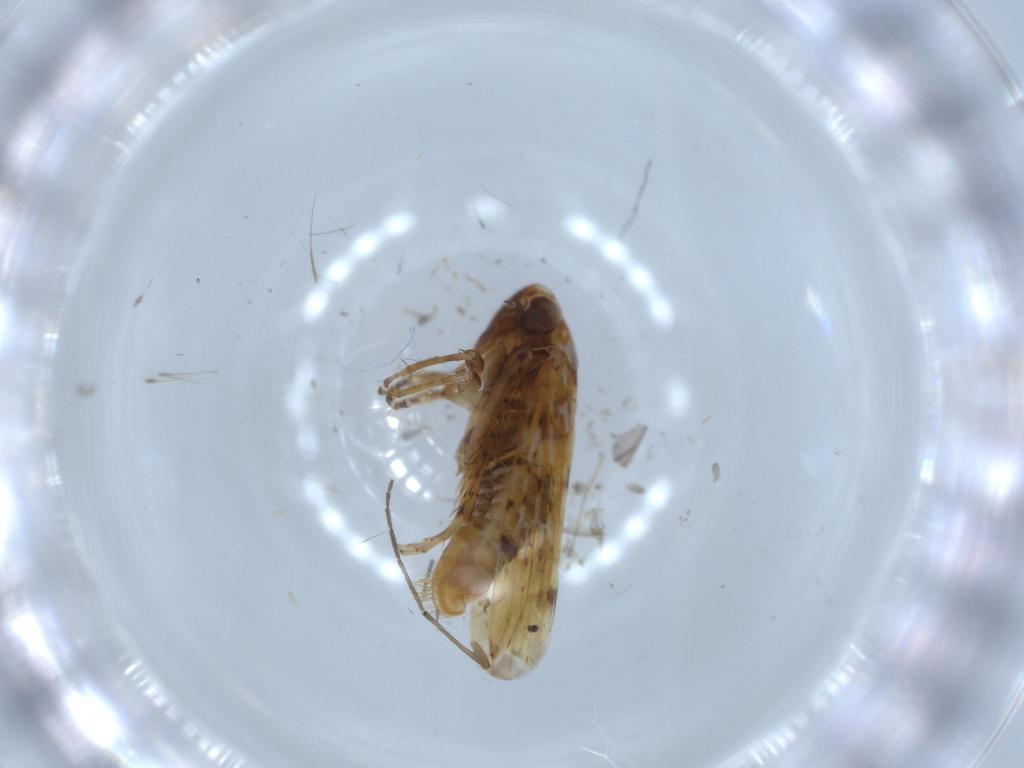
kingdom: Animalia
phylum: Arthropoda
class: Insecta
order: Hemiptera
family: Cicadellidae
